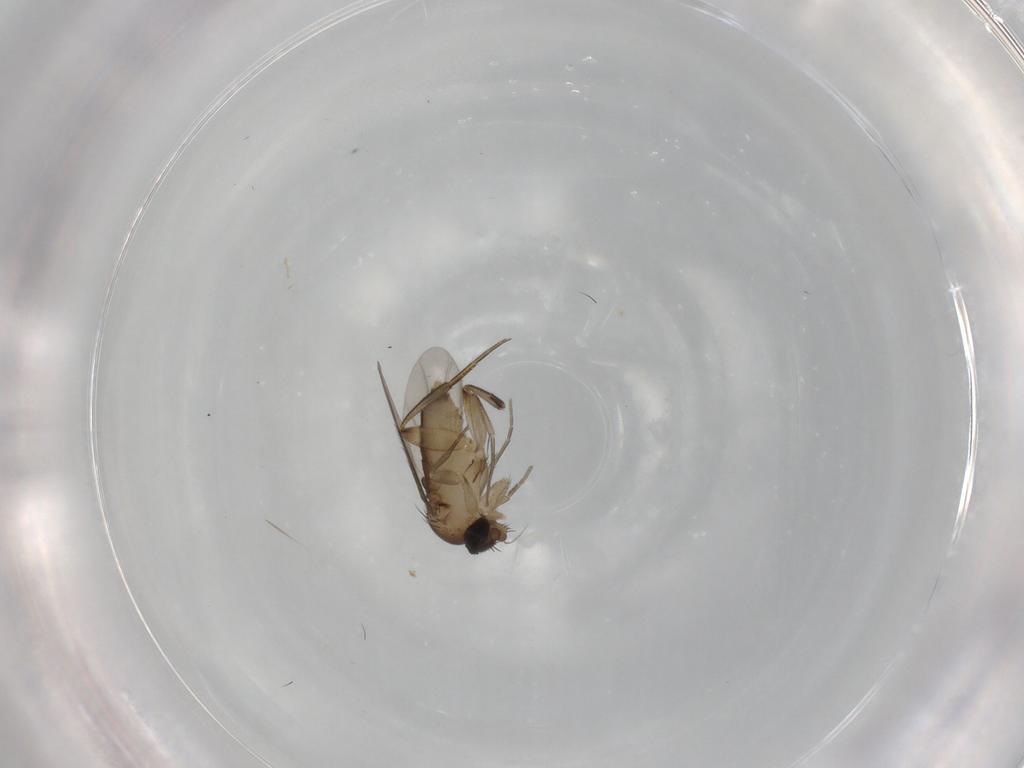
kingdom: Animalia
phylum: Arthropoda
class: Insecta
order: Diptera
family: Phoridae
